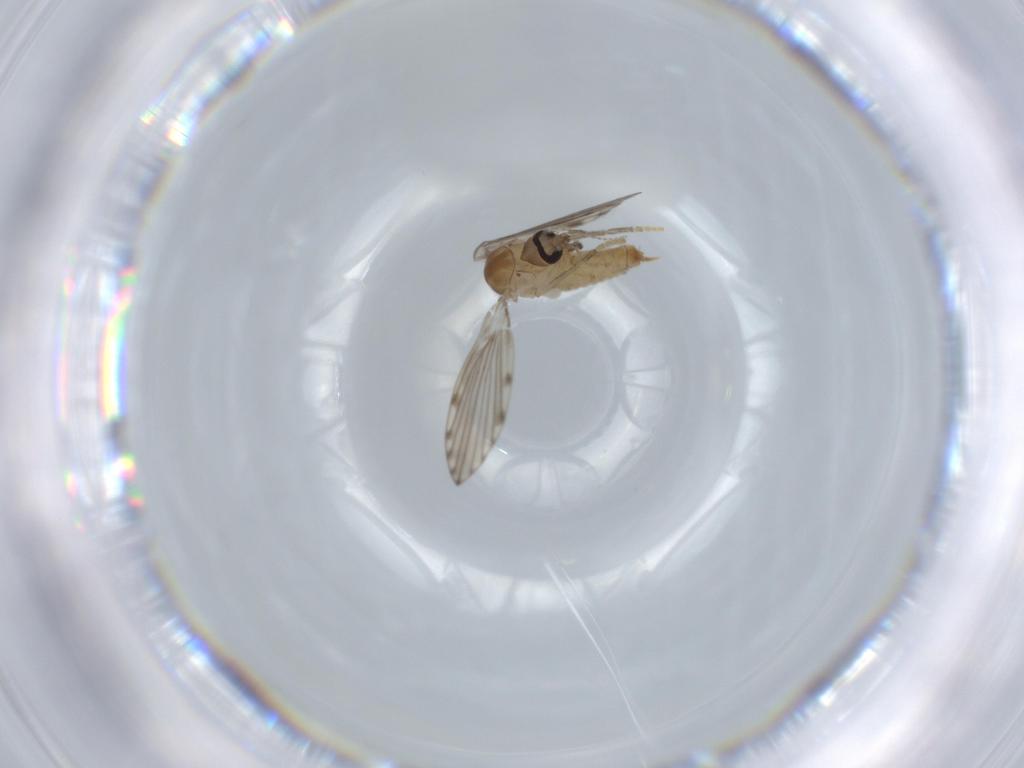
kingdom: Animalia
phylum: Arthropoda
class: Insecta
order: Diptera
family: Psychodidae
